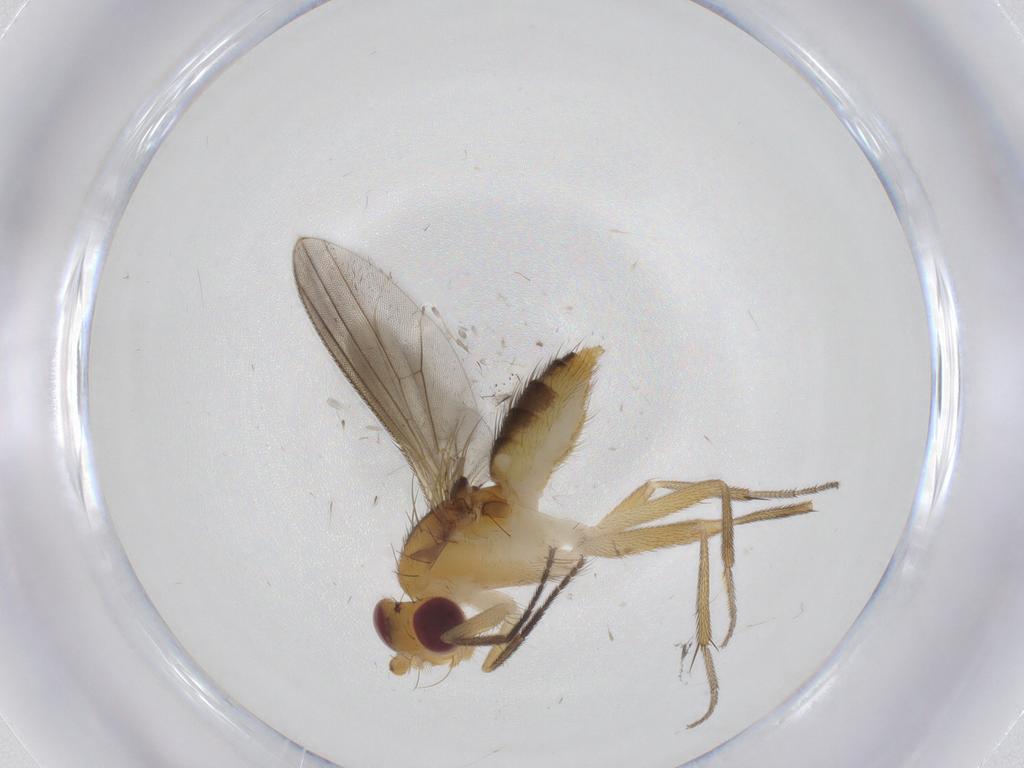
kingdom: Animalia
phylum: Arthropoda
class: Insecta
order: Diptera
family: Clusiidae
